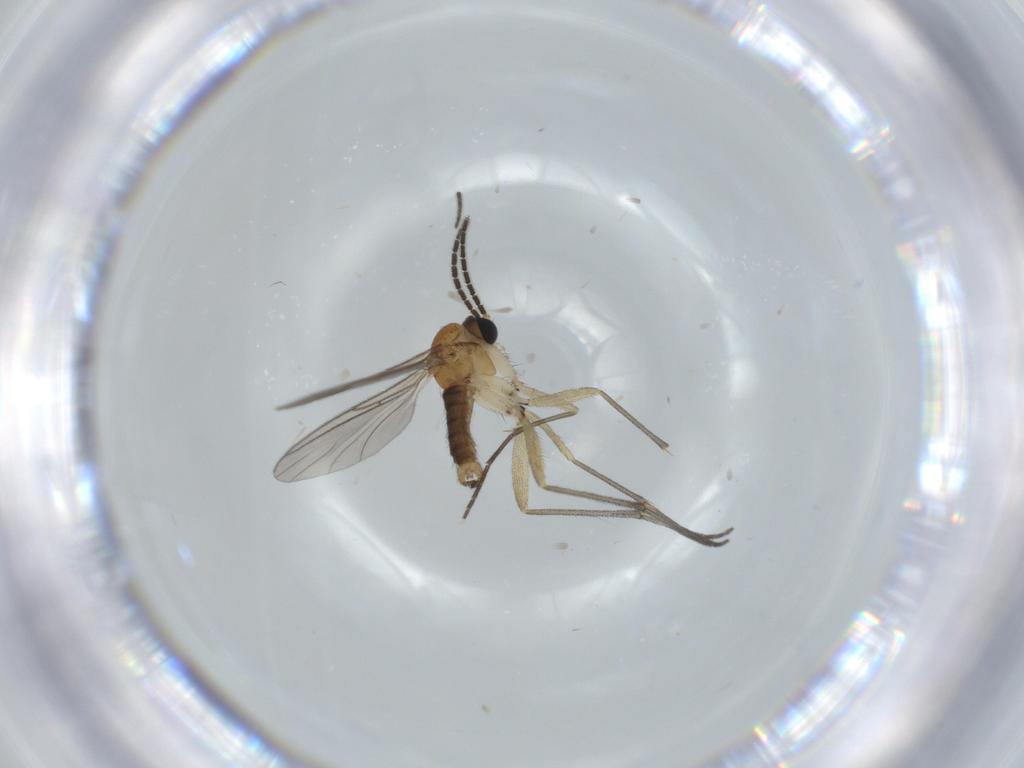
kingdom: Animalia
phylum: Arthropoda
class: Insecta
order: Diptera
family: Sciaridae
